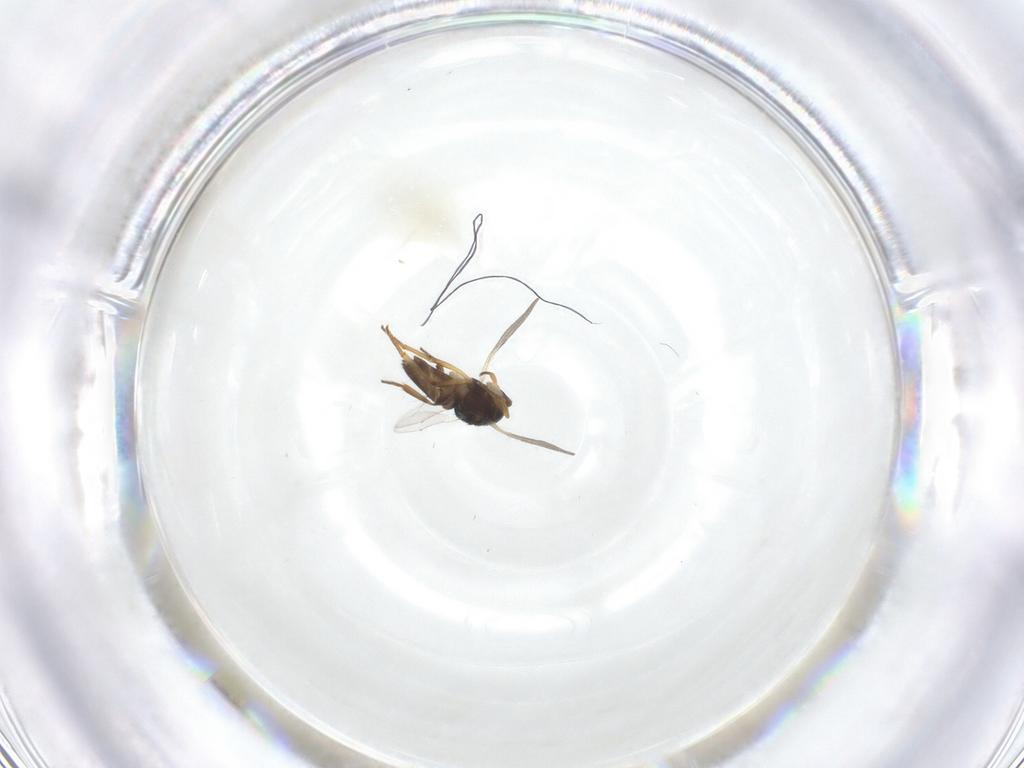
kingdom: Animalia
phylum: Arthropoda
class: Insecta
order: Hymenoptera
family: Encyrtidae
